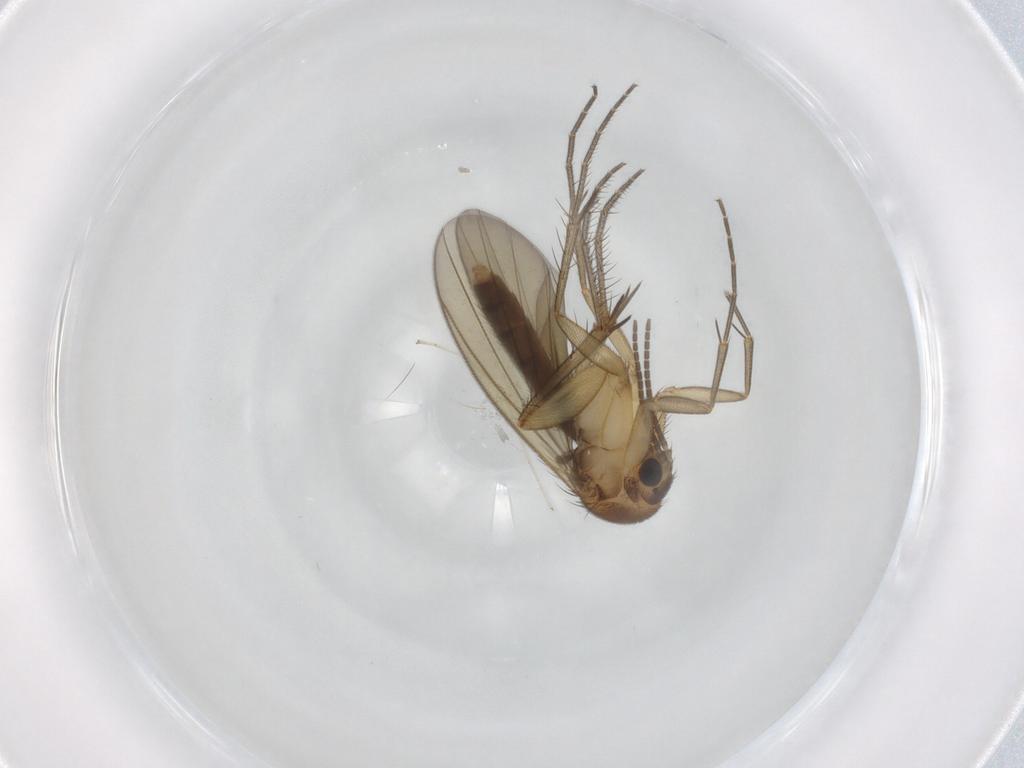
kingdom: Animalia
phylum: Arthropoda
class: Insecta
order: Diptera
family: Mycetophilidae
